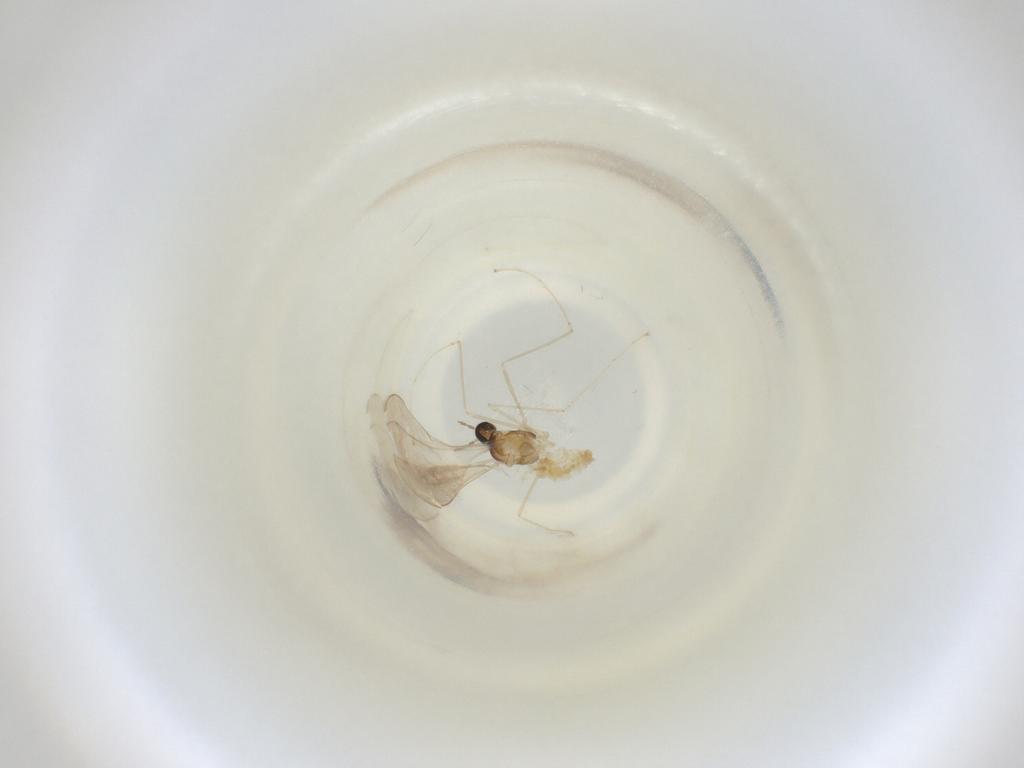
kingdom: Animalia
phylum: Arthropoda
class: Insecta
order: Diptera
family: Cecidomyiidae
